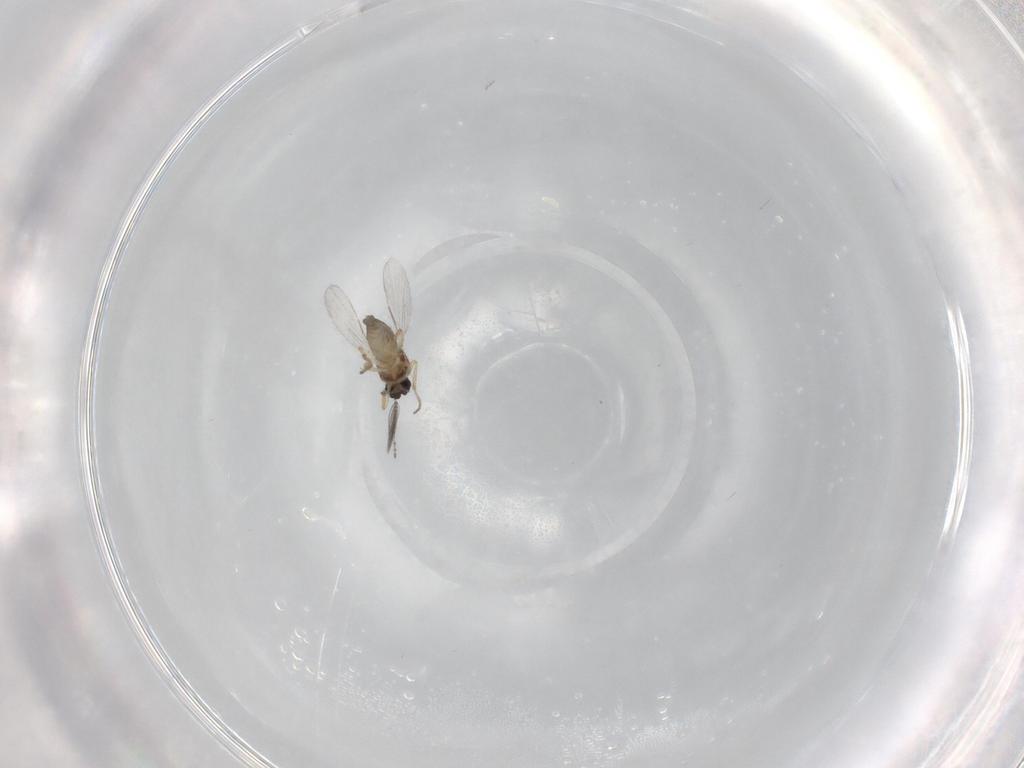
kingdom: Animalia
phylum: Arthropoda
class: Insecta
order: Diptera
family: Ceratopogonidae
